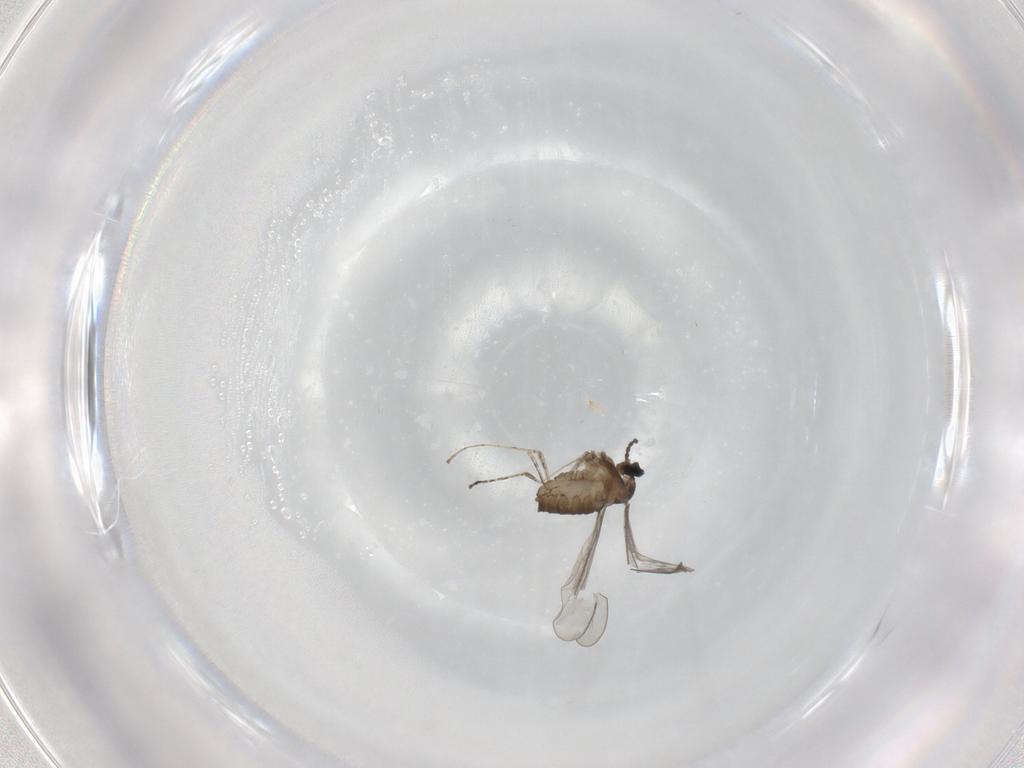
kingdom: Animalia
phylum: Arthropoda
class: Insecta
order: Diptera
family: Cecidomyiidae
